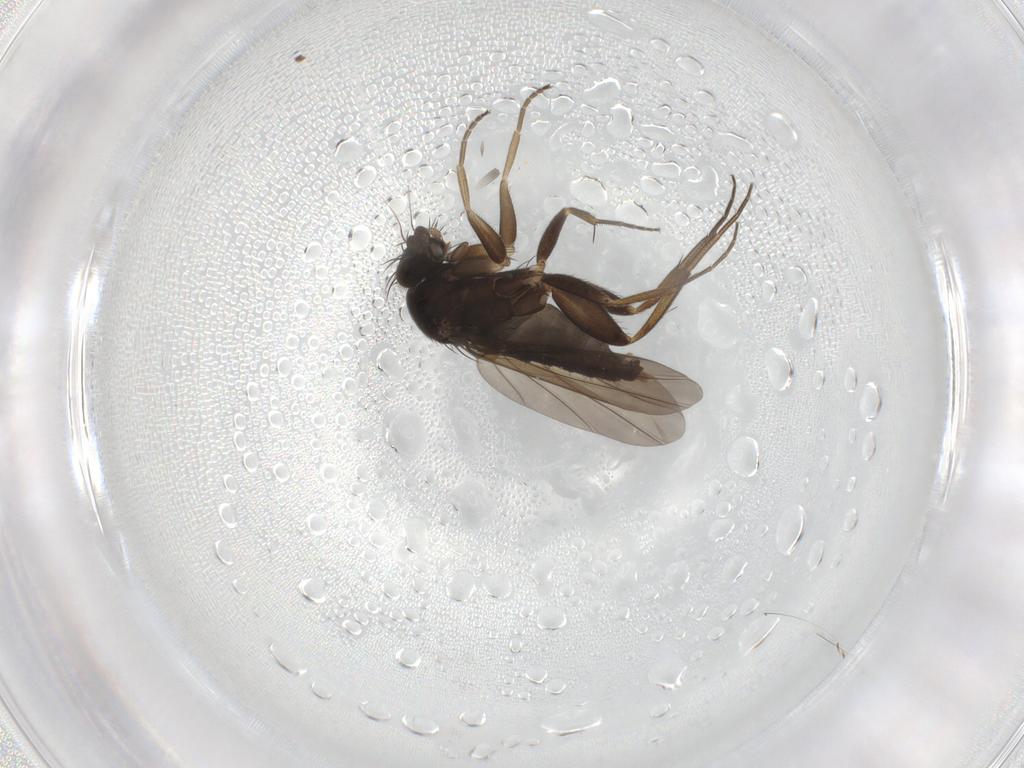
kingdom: Animalia
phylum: Arthropoda
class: Insecta
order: Diptera
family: Phoridae
